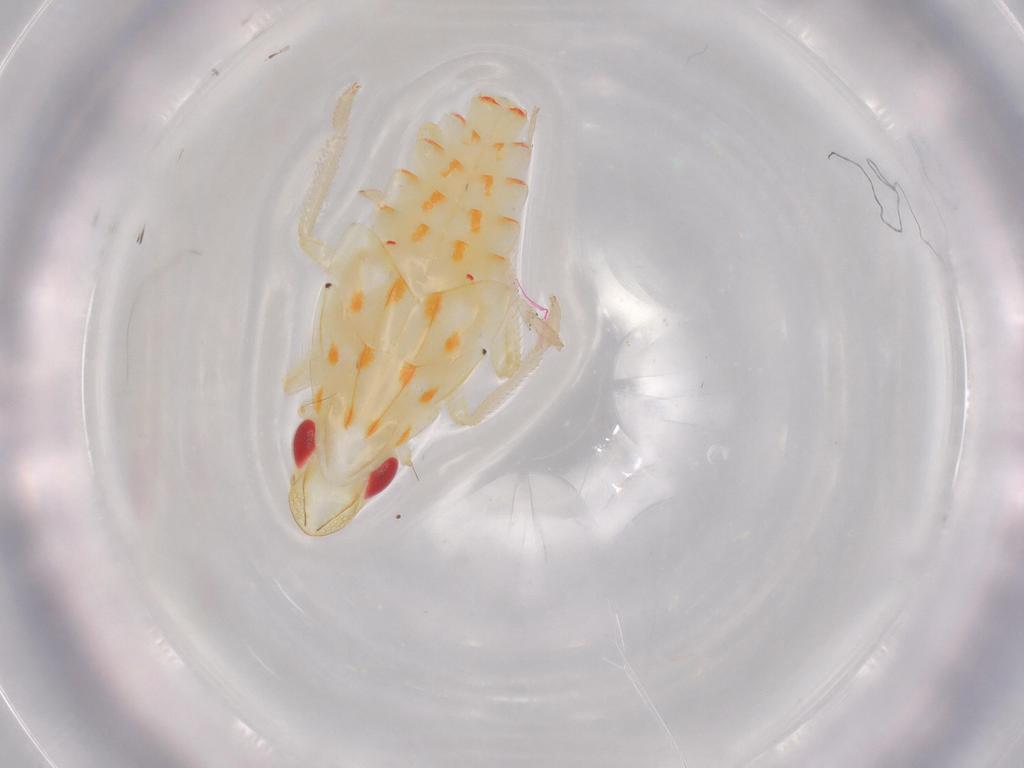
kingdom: Animalia
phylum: Arthropoda
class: Insecta
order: Hemiptera
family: Tropiduchidae
